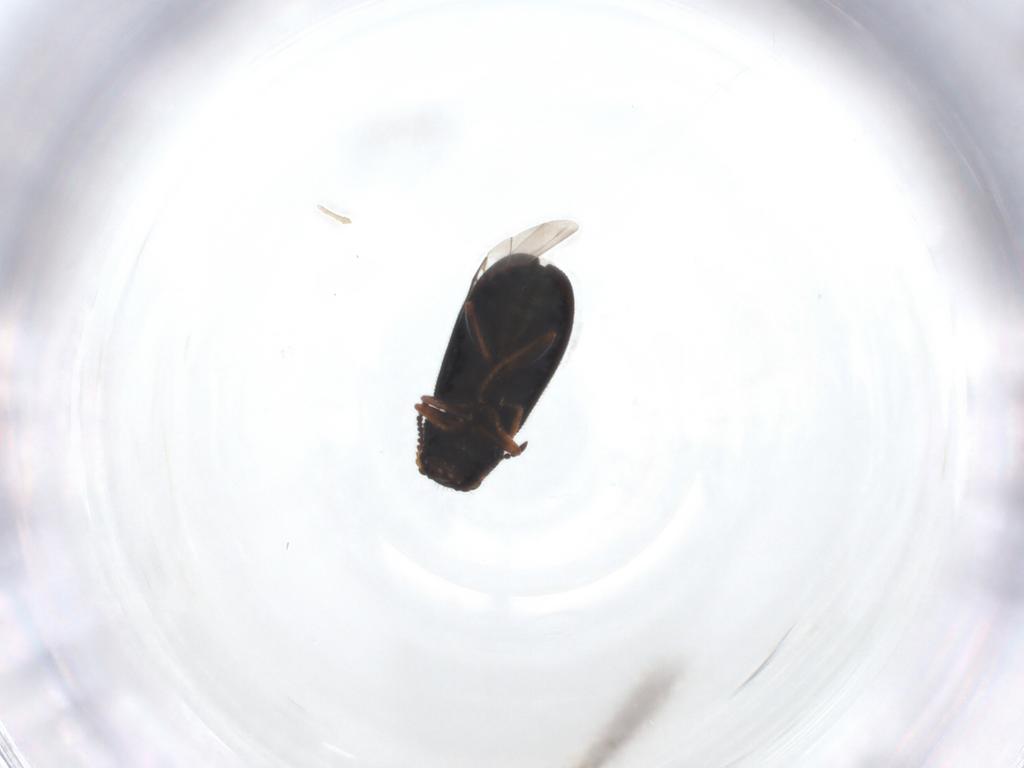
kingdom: Animalia
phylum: Arthropoda
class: Insecta
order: Coleoptera
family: Melyridae
